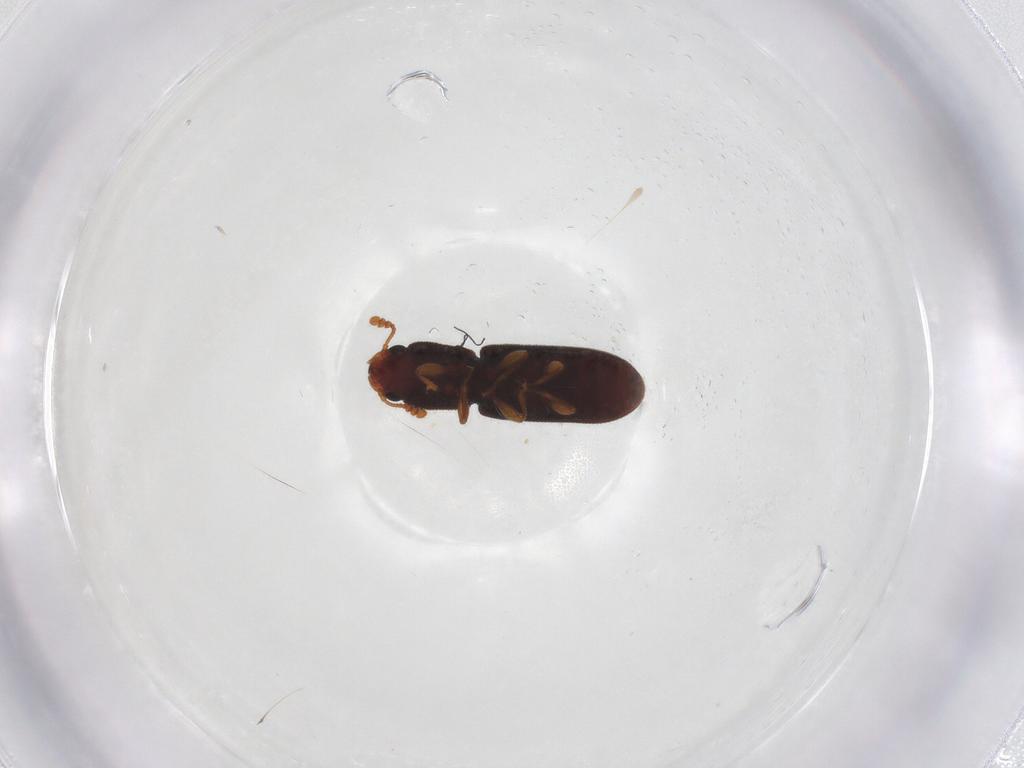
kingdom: Animalia
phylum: Arthropoda
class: Insecta
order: Coleoptera
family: Zopheridae
